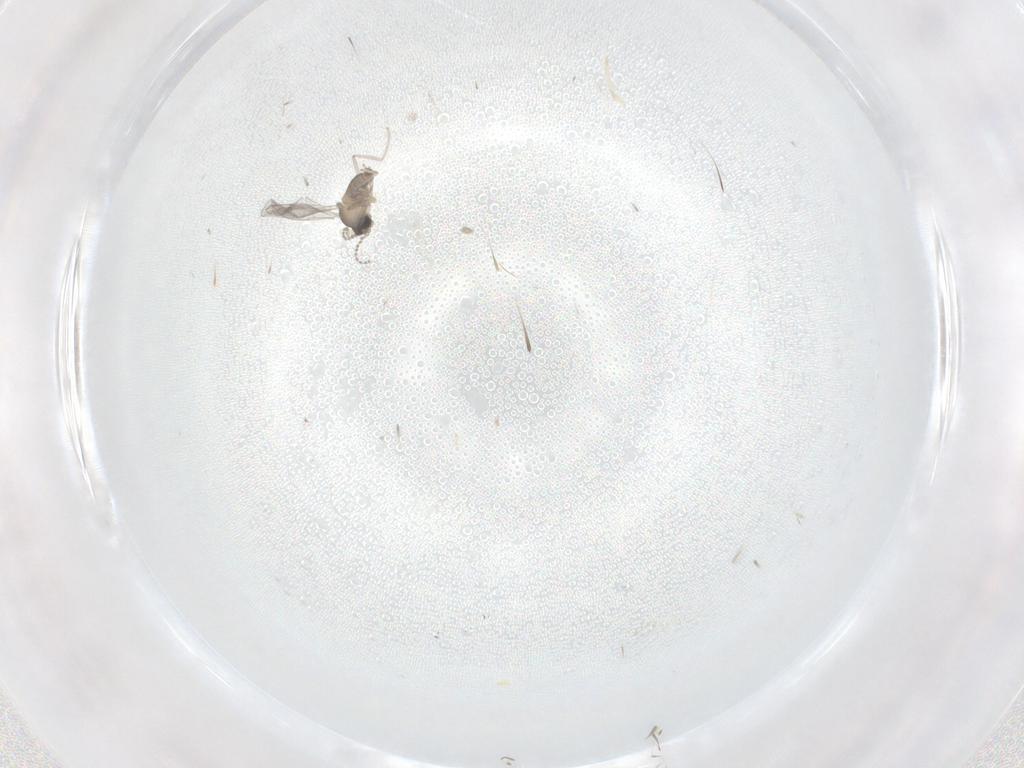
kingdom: Animalia
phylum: Arthropoda
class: Insecta
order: Diptera
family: Cecidomyiidae
